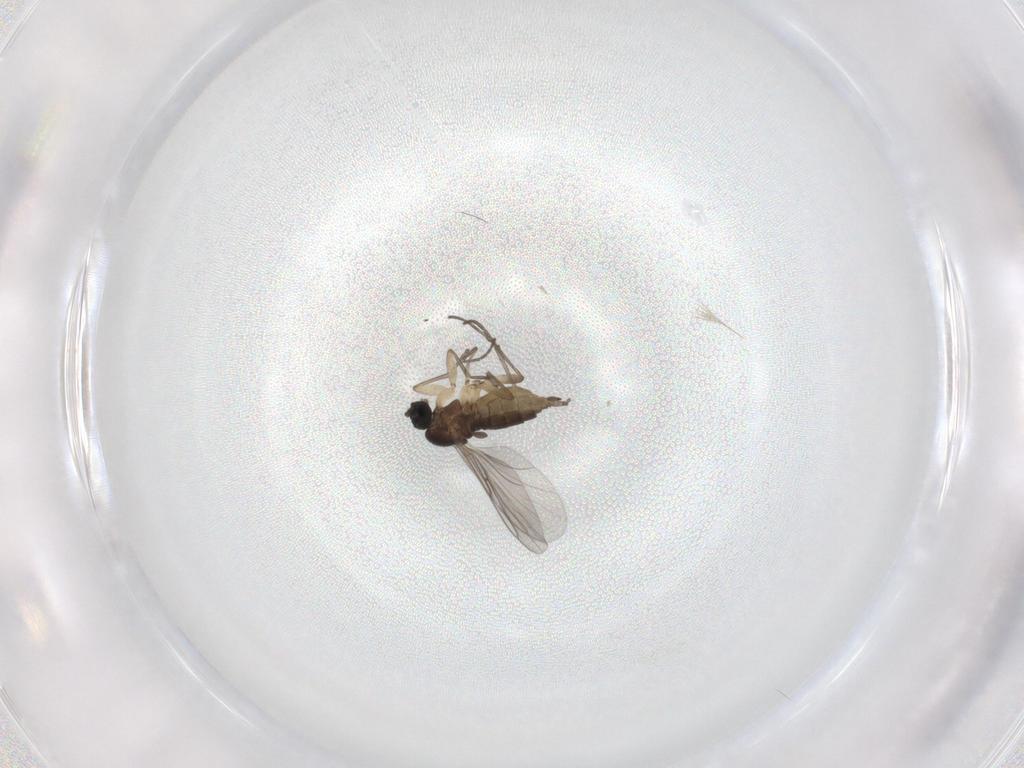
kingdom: Animalia
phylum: Arthropoda
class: Insecta
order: Diptera
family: Sciaridae
